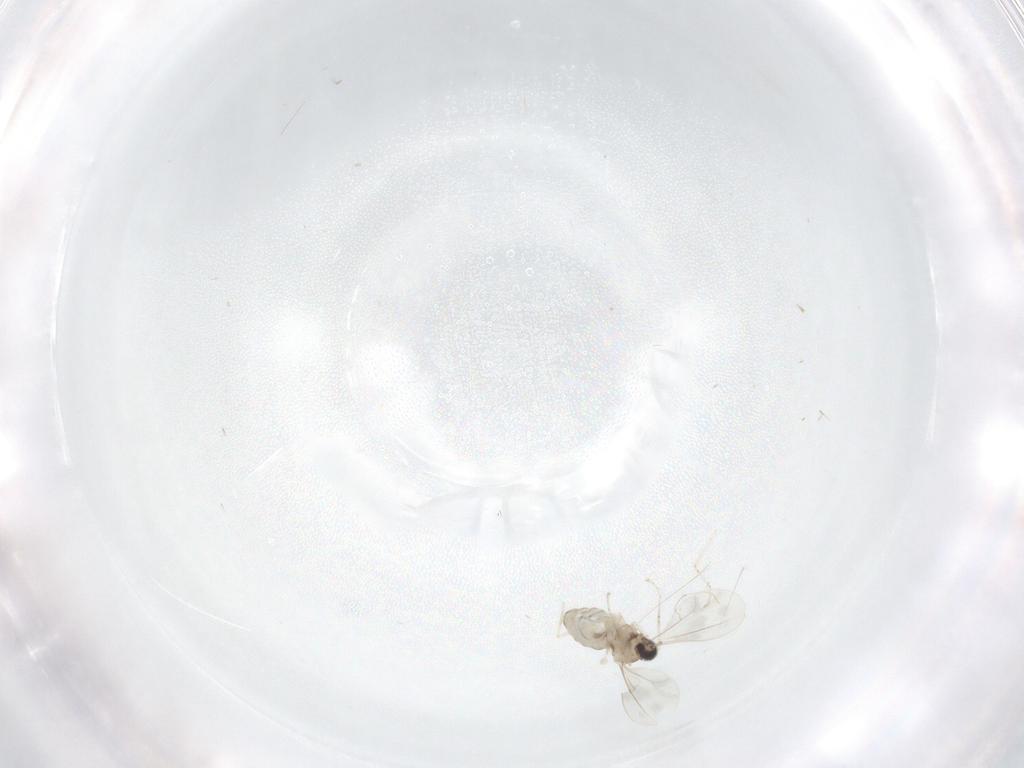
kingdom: Animalia
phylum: Arthropoda
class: Insecta
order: Diptera
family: Cecidomyiidae
